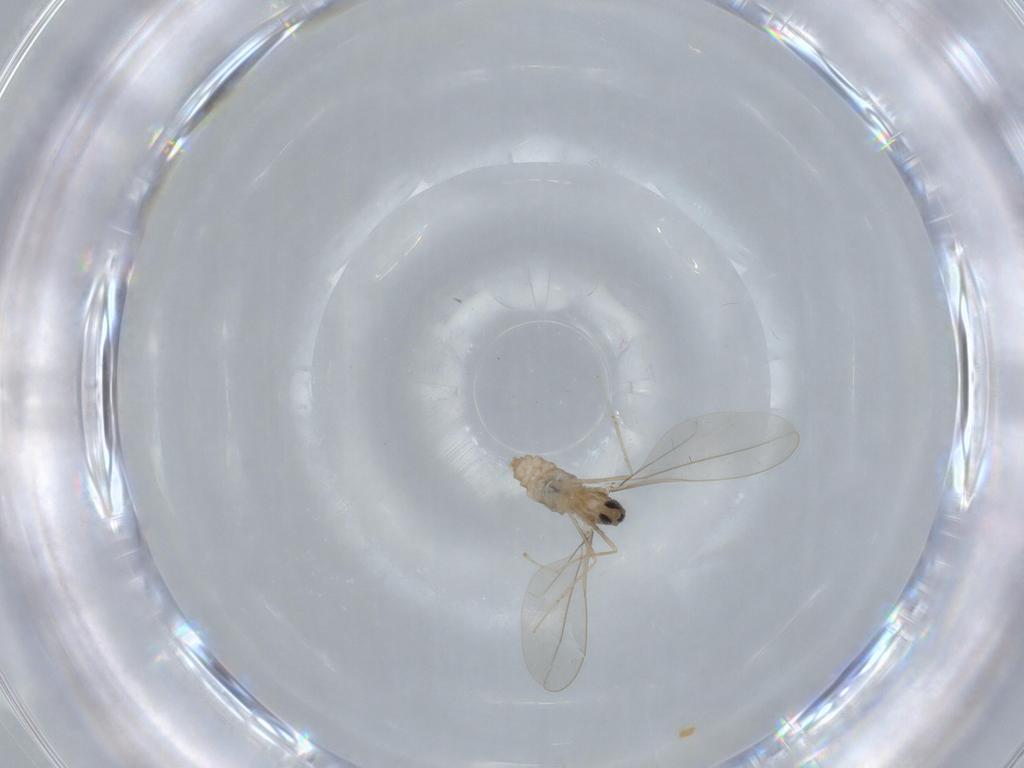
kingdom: Animalia
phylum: Arthropoda
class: Insecta
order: Diptera
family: Cecidomyiidae
